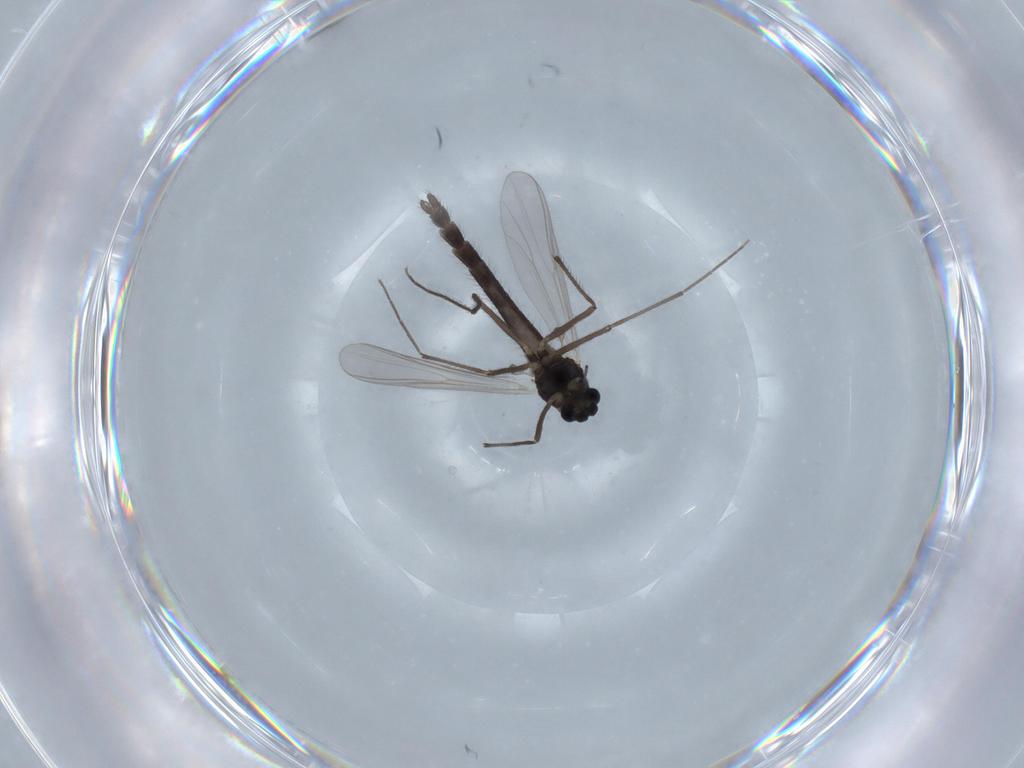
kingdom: Animalia
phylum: Arthropoda
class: Insecta
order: Diptera
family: Chironomidae
